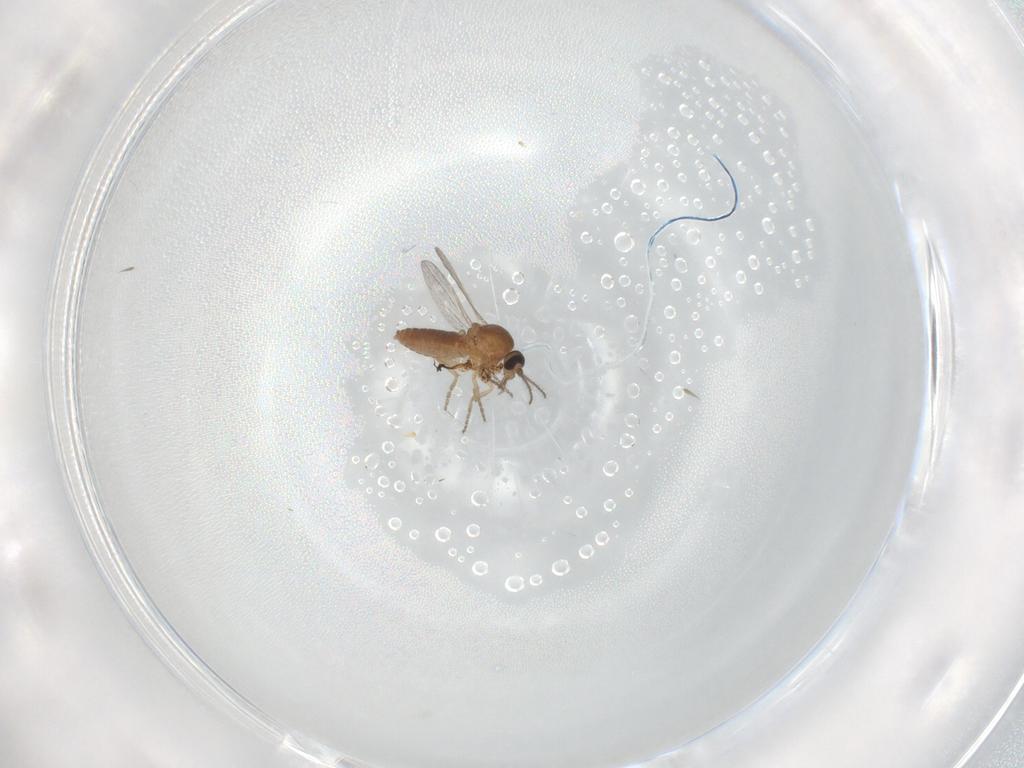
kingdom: Animalia
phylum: Arthropoda
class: Insecta
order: Diptera
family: Ceratopogonidae
